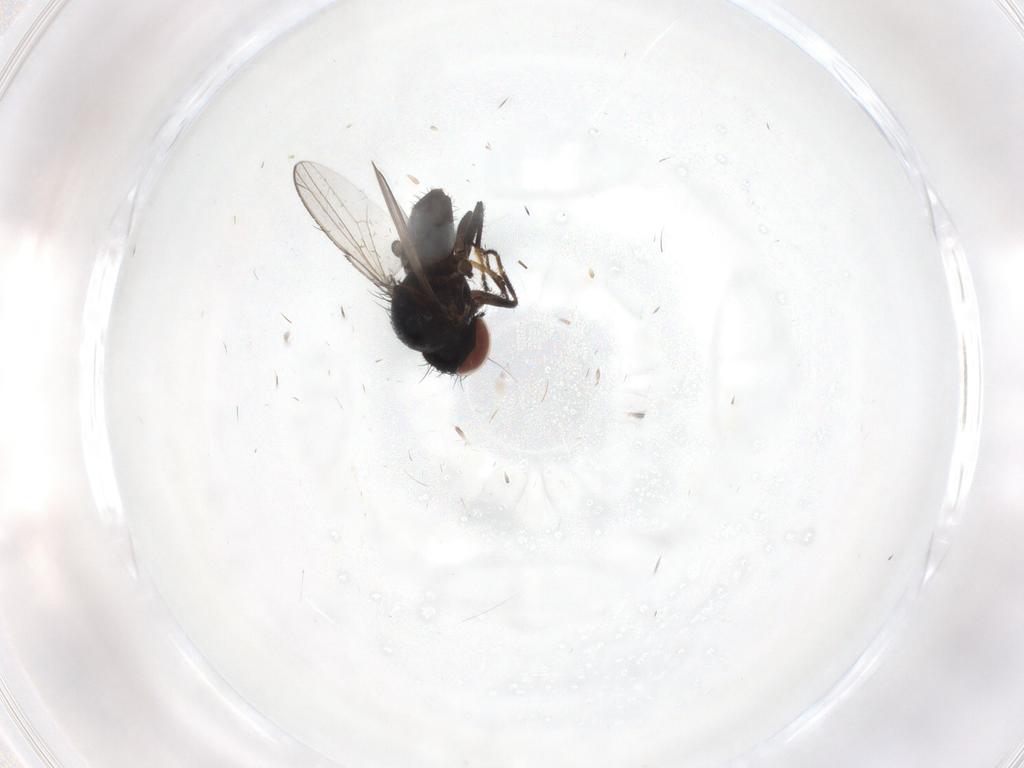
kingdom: Animalia
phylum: Arthropoda
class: Insecta
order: Diptera
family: Milichiidae
